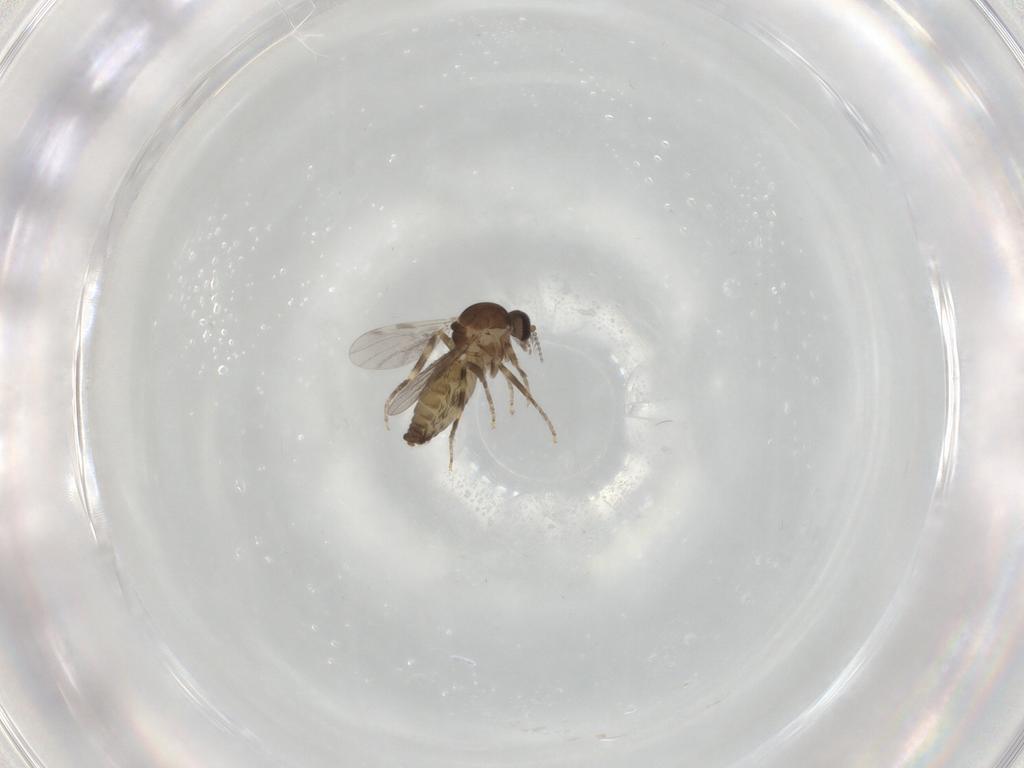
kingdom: Animalia
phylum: Arthropoda
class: Insecta
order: Diptera
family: Ceratopogonidae
